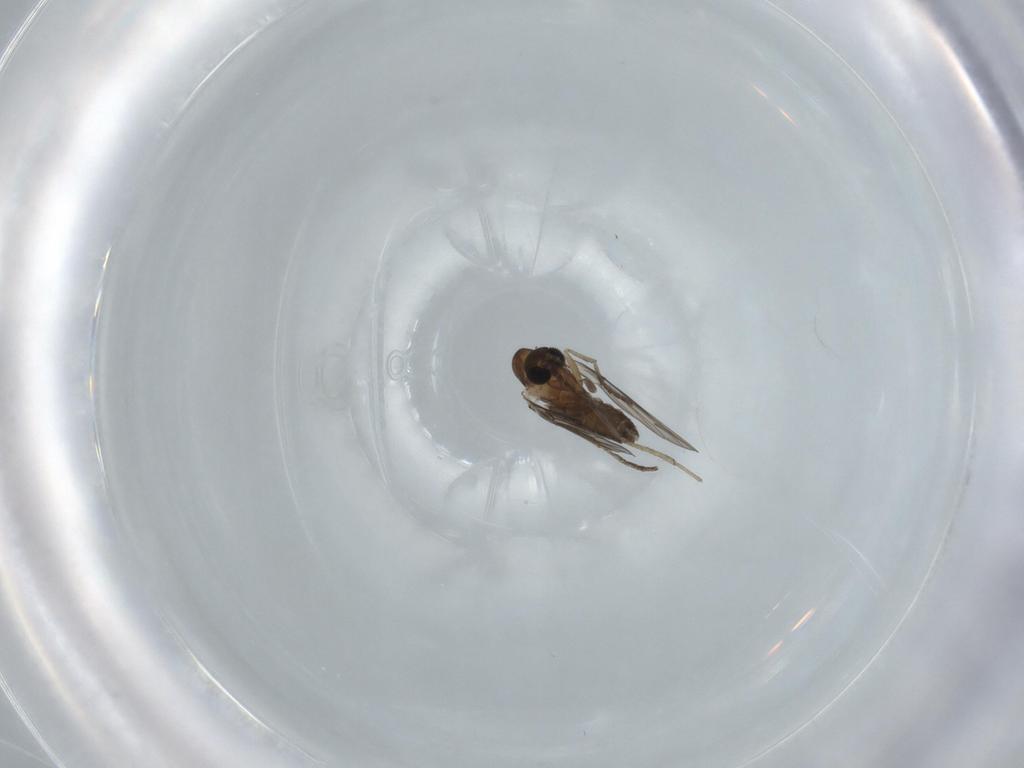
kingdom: Animalia
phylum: Arthropoda
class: Insecta
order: Diptera
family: Psychodidae
